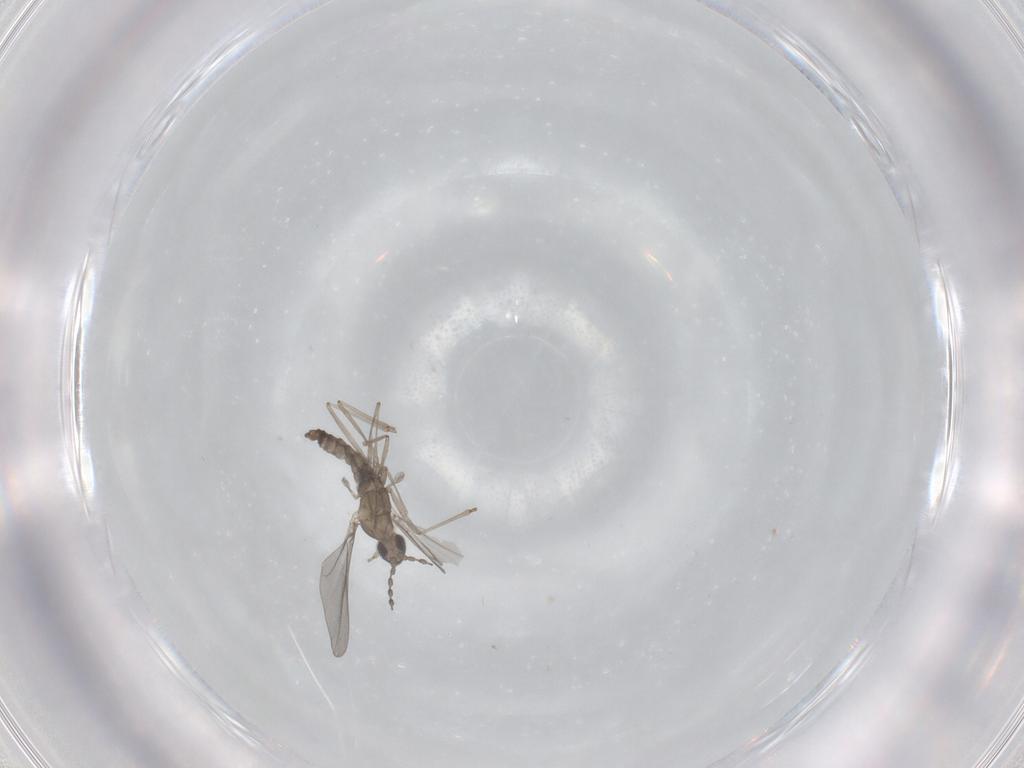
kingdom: Animalia
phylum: Arthropoda
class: Insecta
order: Diptera
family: Cecidomyiidae
